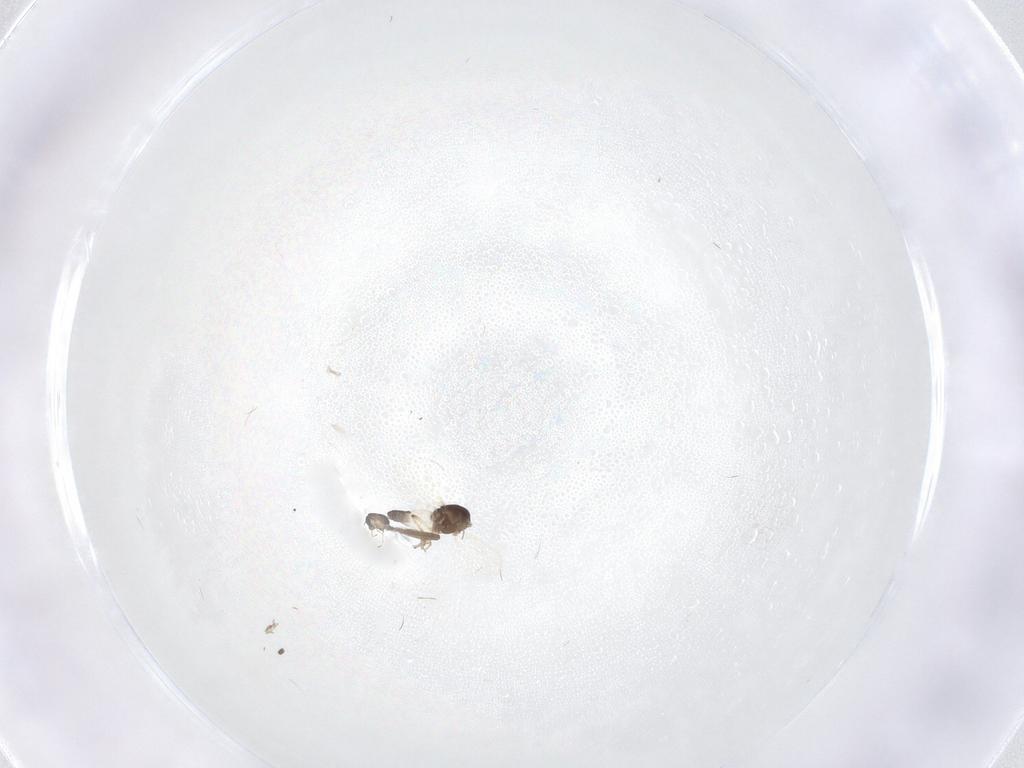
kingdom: Animalia
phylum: Arthropoda
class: Insecta
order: Diptera
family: Ceratopogonidae
